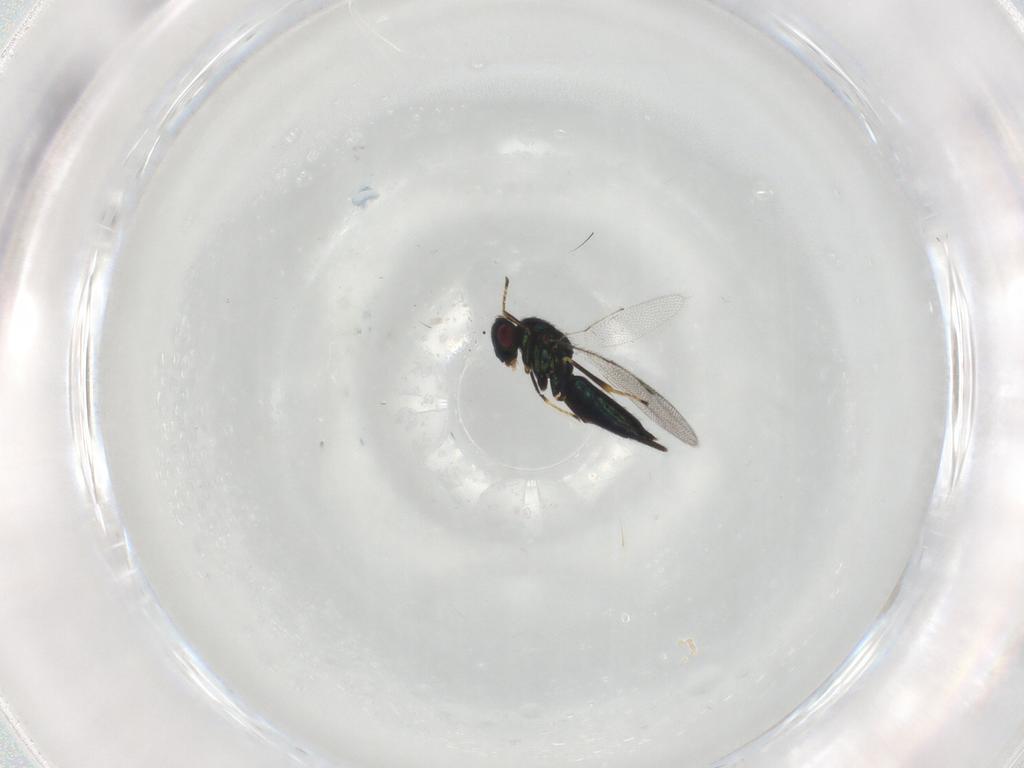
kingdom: Animalia
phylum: Arthropoda
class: Insecta
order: Hymenoptera
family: Pirenidae
